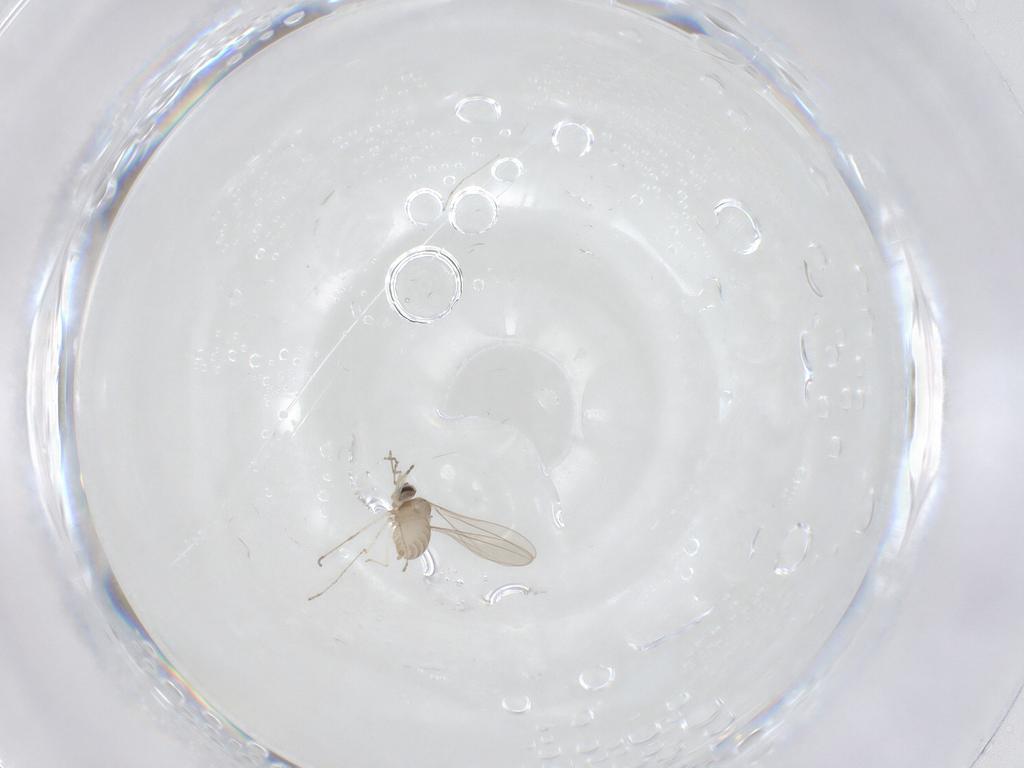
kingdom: Animalia
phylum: Arthropoda
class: Insecta
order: Diptera
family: Cecidomyiidae
